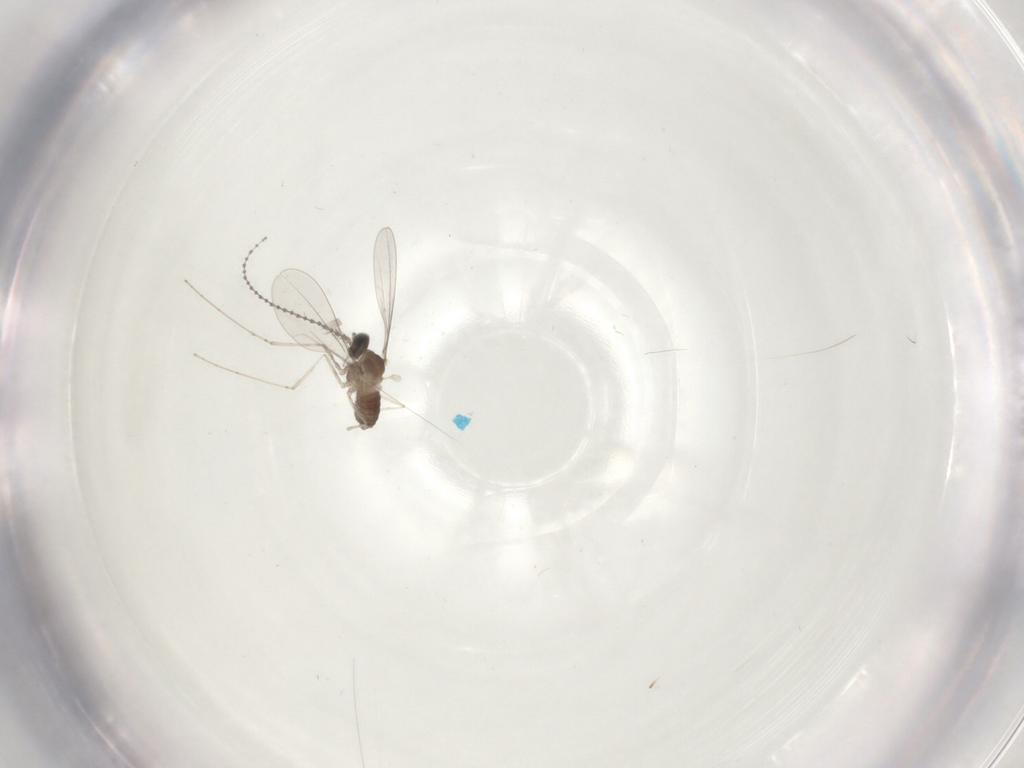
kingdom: Animalia
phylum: Arthropoda
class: Insecta
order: Diptera
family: Cecidomyiidae
